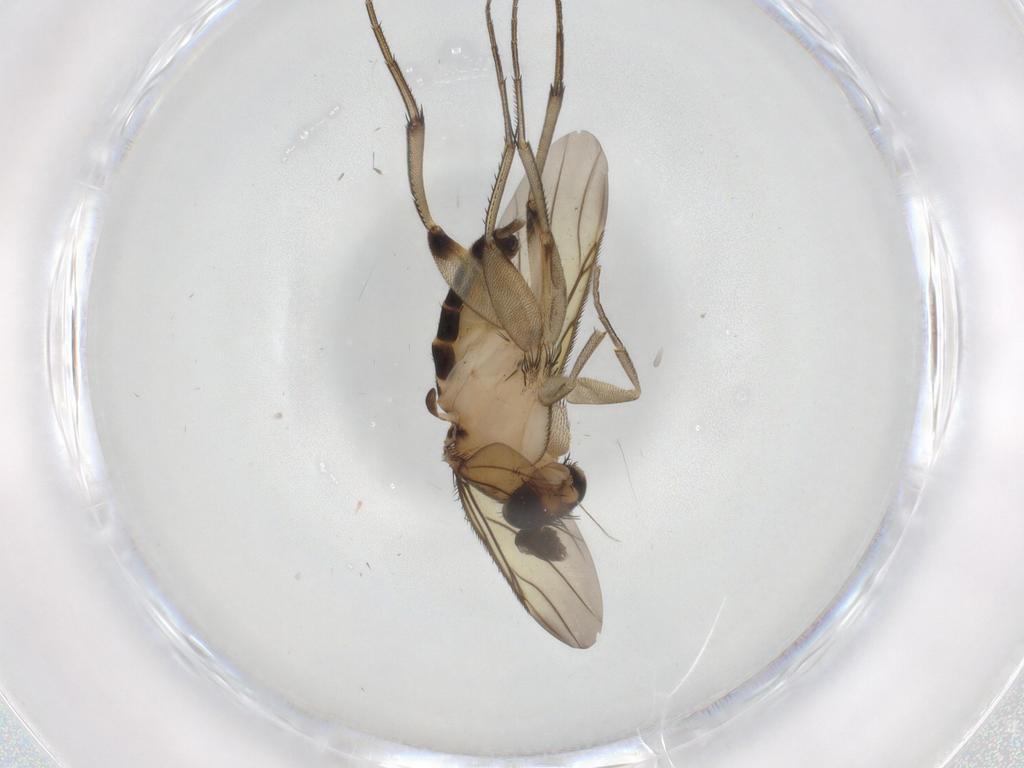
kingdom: Animalia
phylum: Arthropoda
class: Insecta
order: Diptera
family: Phoridae
